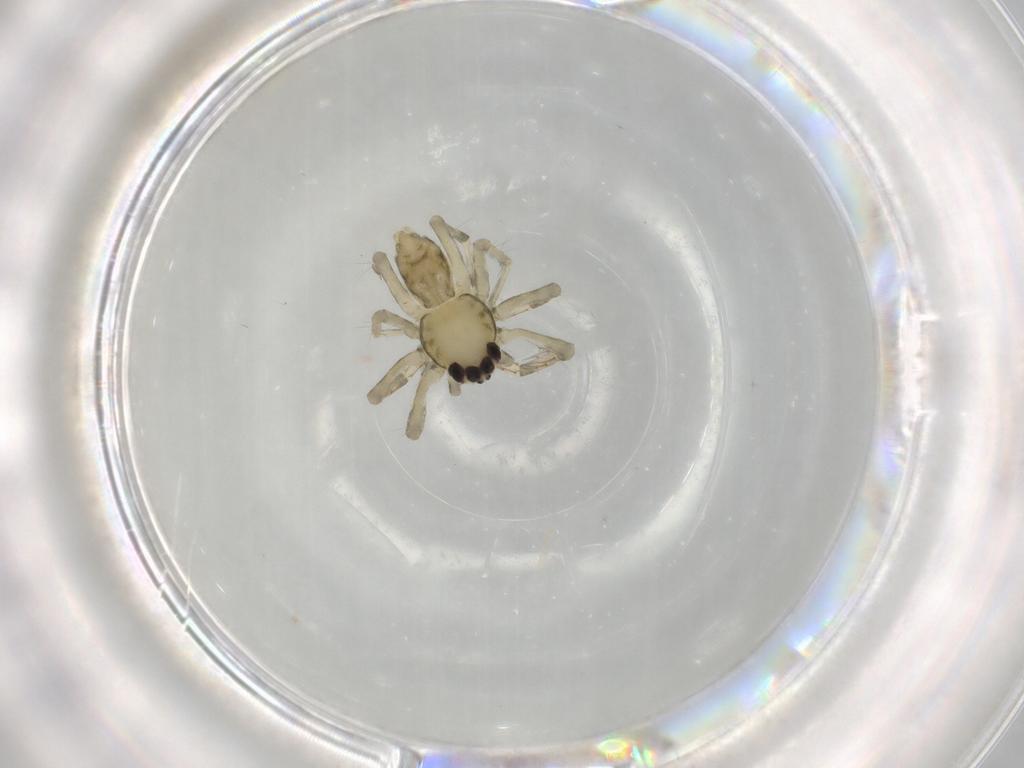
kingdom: Animalia
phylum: Arthropoda
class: Arachnida
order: Araneae
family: Senoculidae
